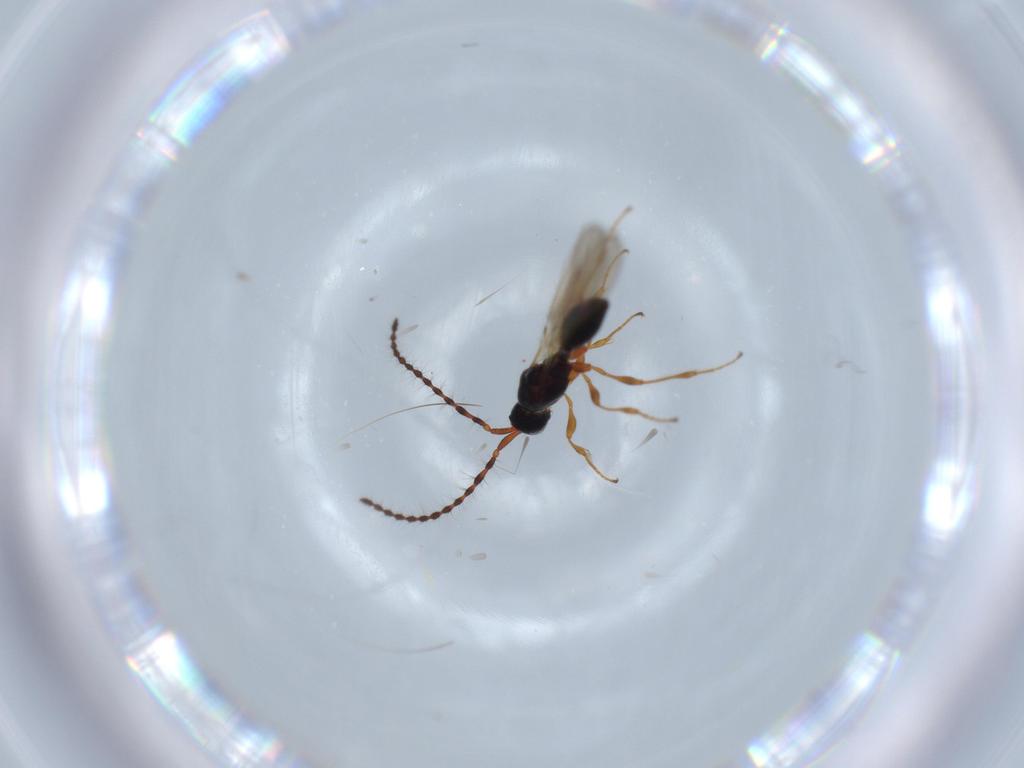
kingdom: Animalia
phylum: Arthropoda
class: Insecta
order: Hymenoptera
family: Diapriidae
